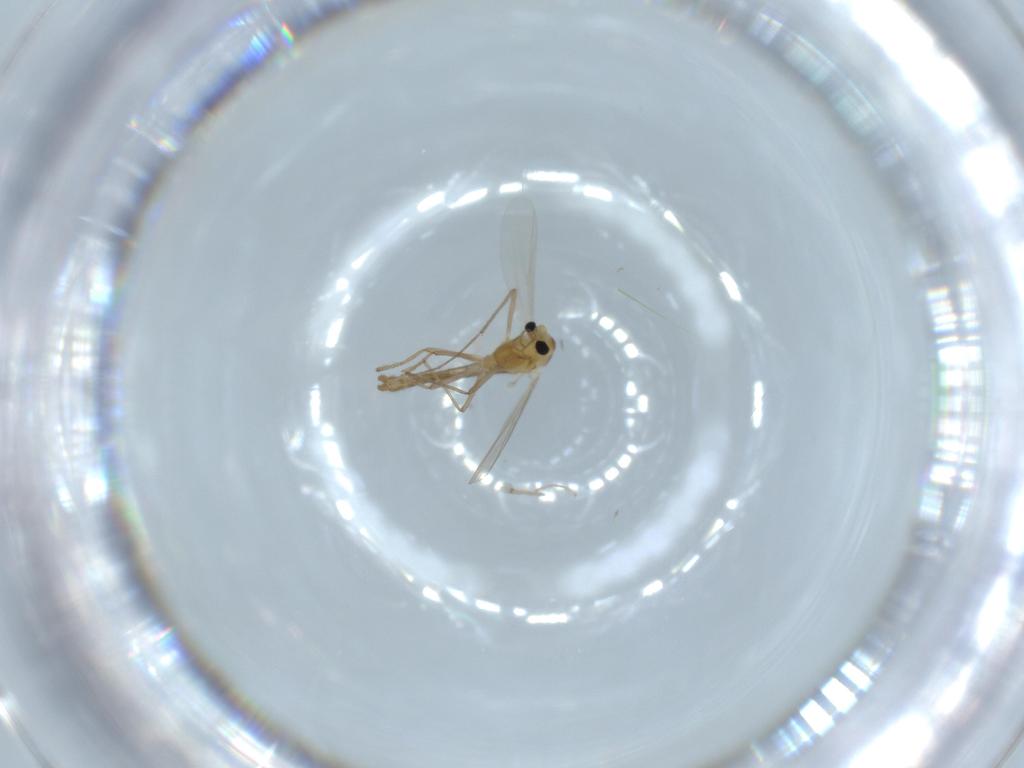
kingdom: Animalia
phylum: Arthropoda
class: Insecta
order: Diptera
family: Chironomidae
